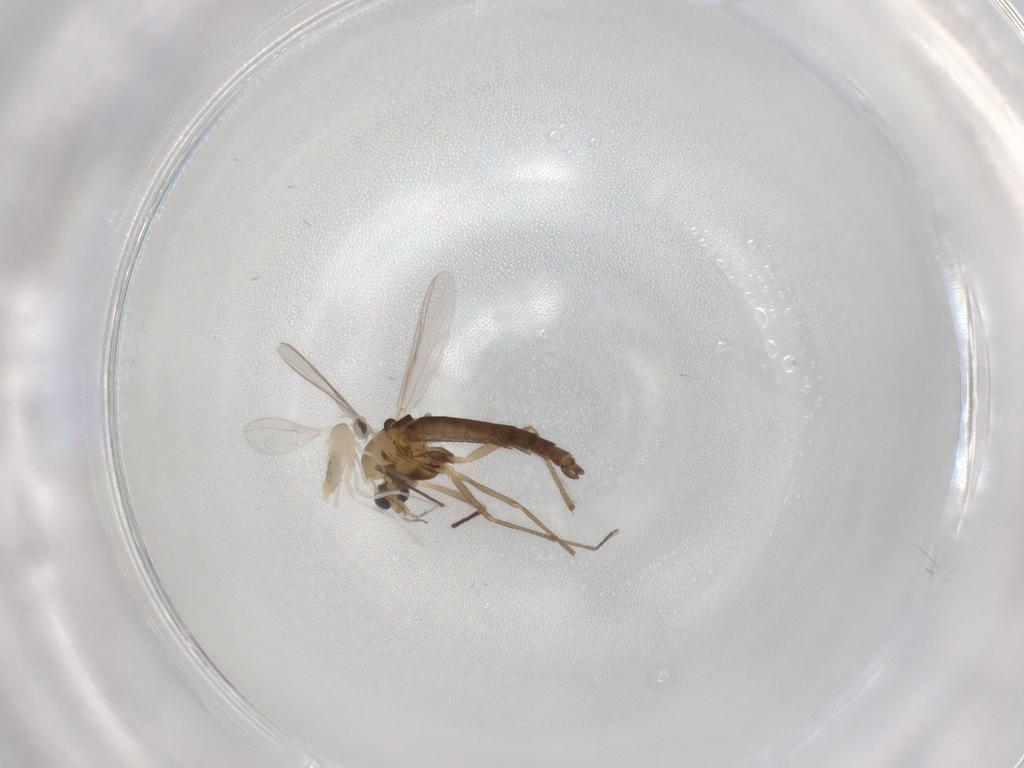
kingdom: Animalia
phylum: Arthropoda
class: Insecta
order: Diptera
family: Chironomidae
